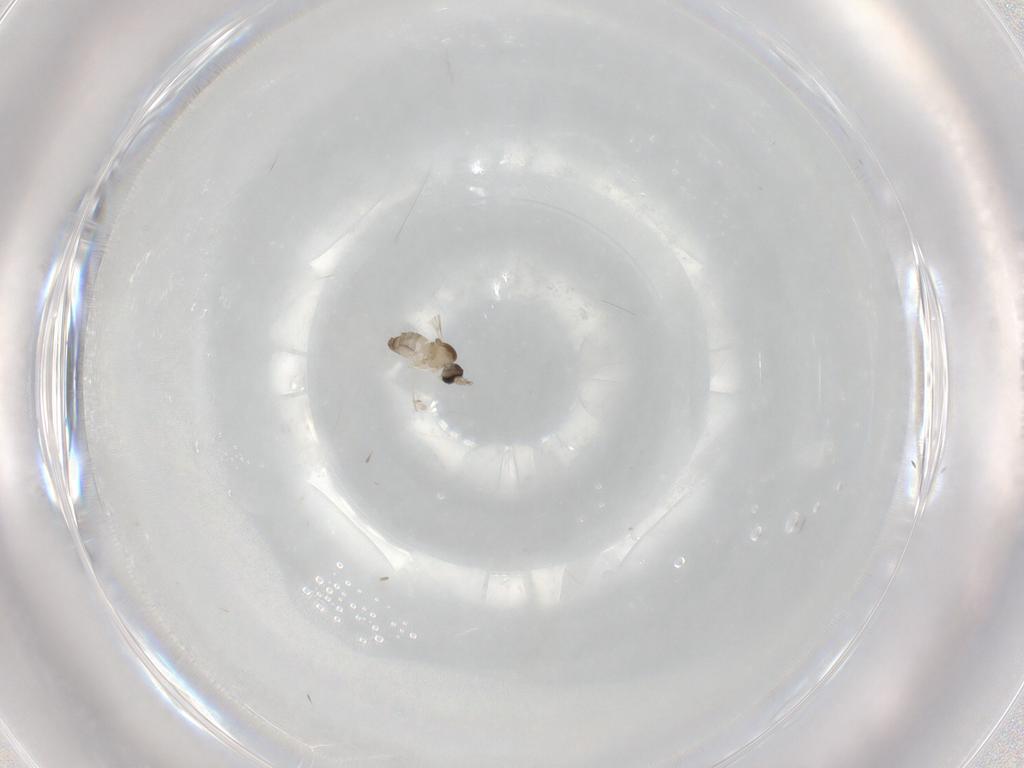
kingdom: Animalia
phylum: Arthropoda
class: Insecta
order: Diptera
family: Cecidomyiidae
